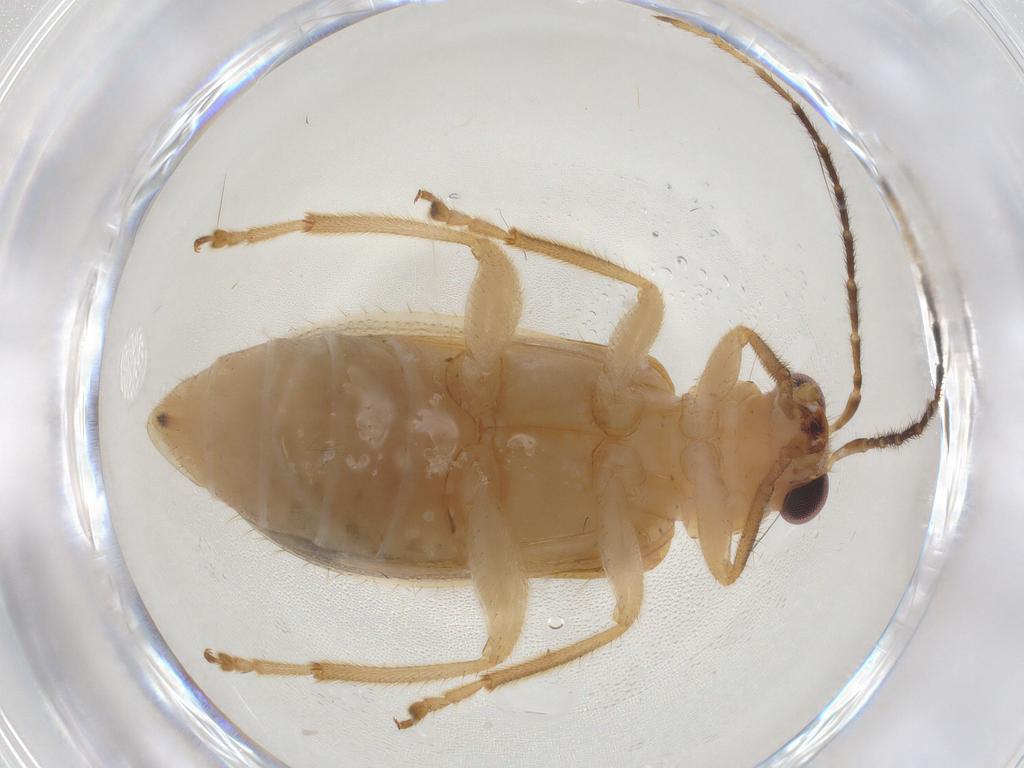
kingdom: Animalia
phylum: Arthropoda
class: Insecta
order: Coleoptera
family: Chrysomelidae
